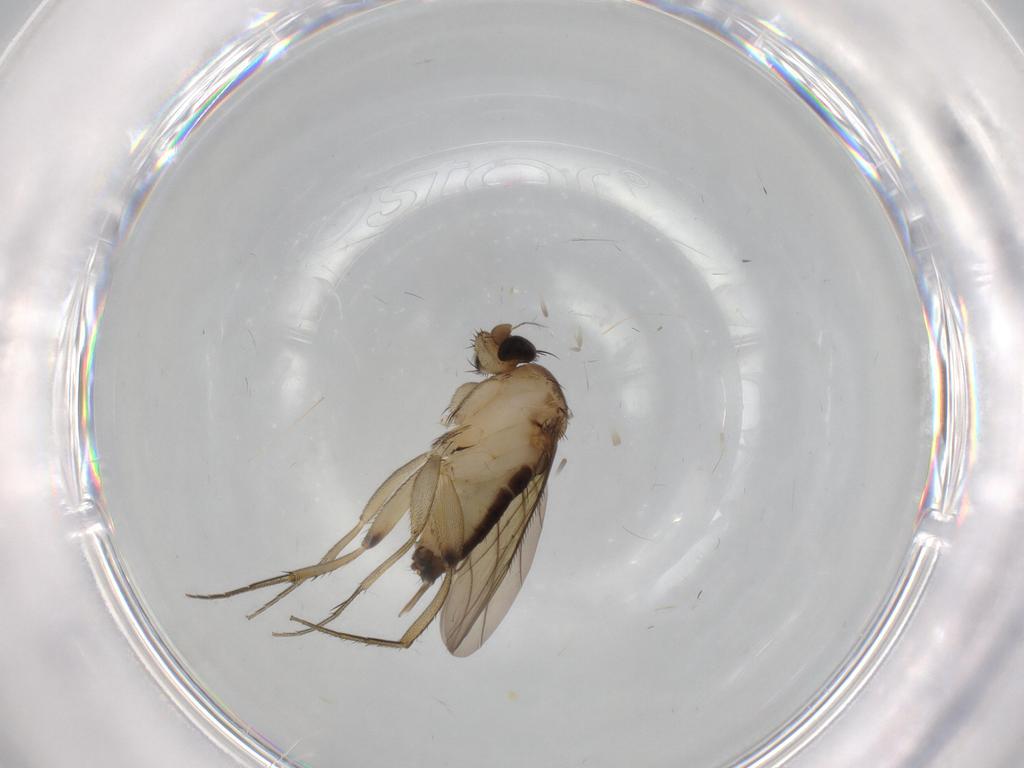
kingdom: Animalia
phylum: Arthropoda
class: Insecta
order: Diptera
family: Phoridae
